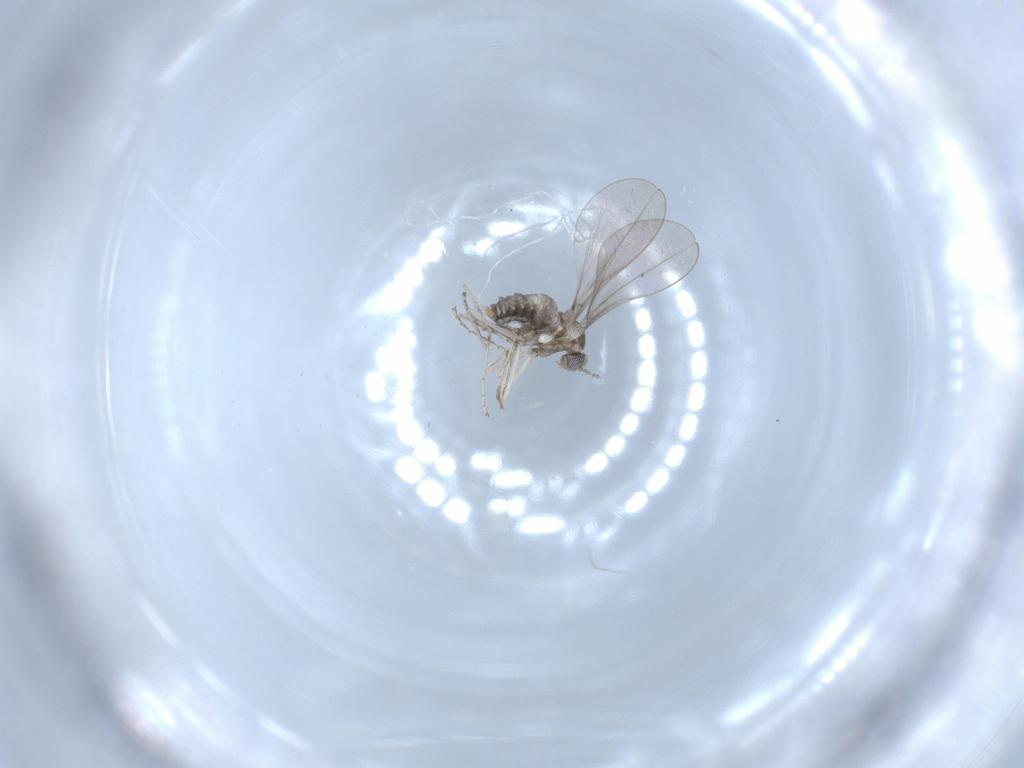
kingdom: Animalia
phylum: Arthropoda
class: Insecta
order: Diptera
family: Cecidomyiidae
